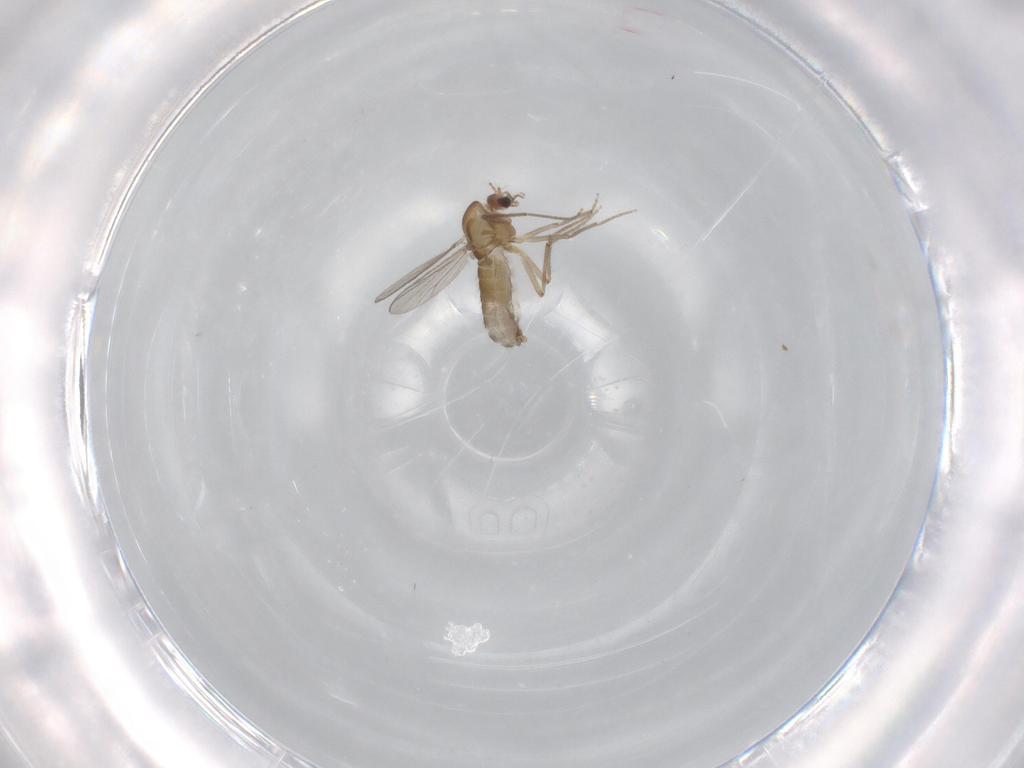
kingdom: Animalia
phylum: Arthropoda
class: Insecta
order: Diptera
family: Chironomidae
